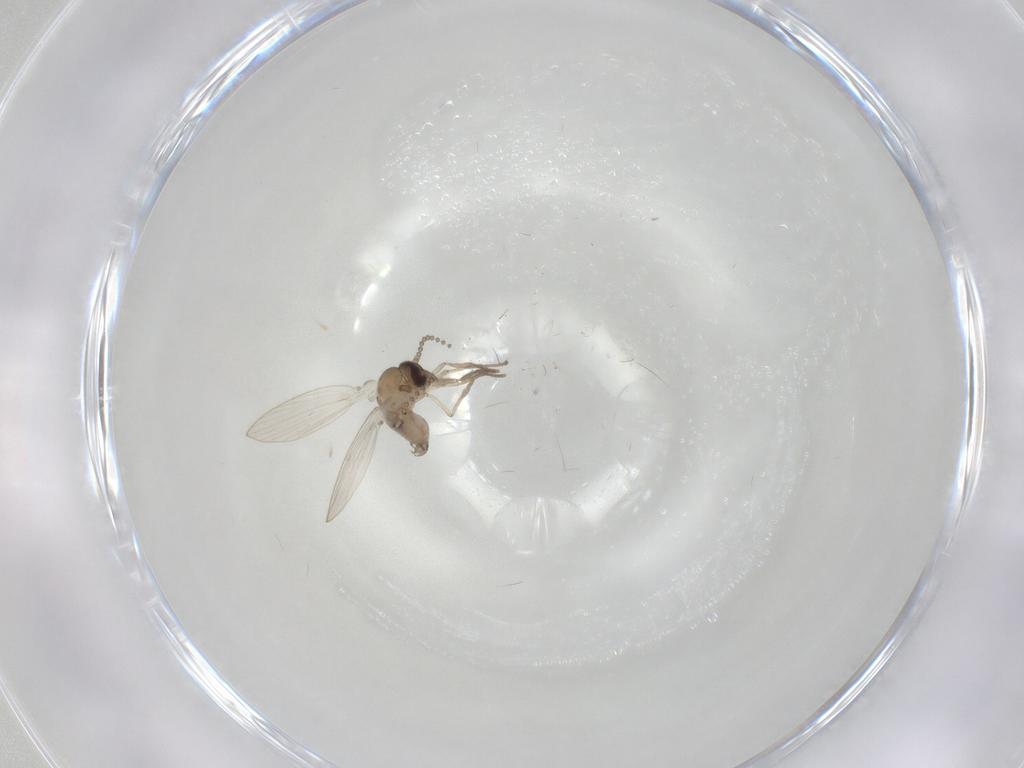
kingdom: Animalia
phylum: Arthropoda
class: Insecta
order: Diptera
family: Psychodidae
